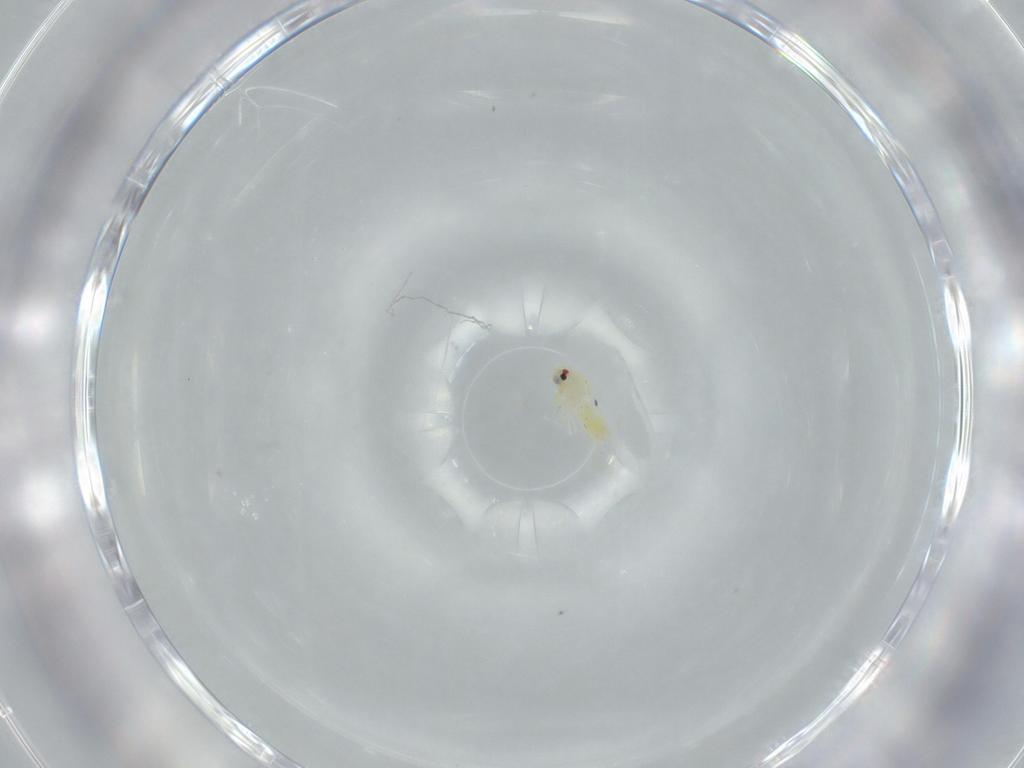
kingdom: Animalia
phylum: Arthropoda
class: Insecta
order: Hemiptera
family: Aleyrodidae
